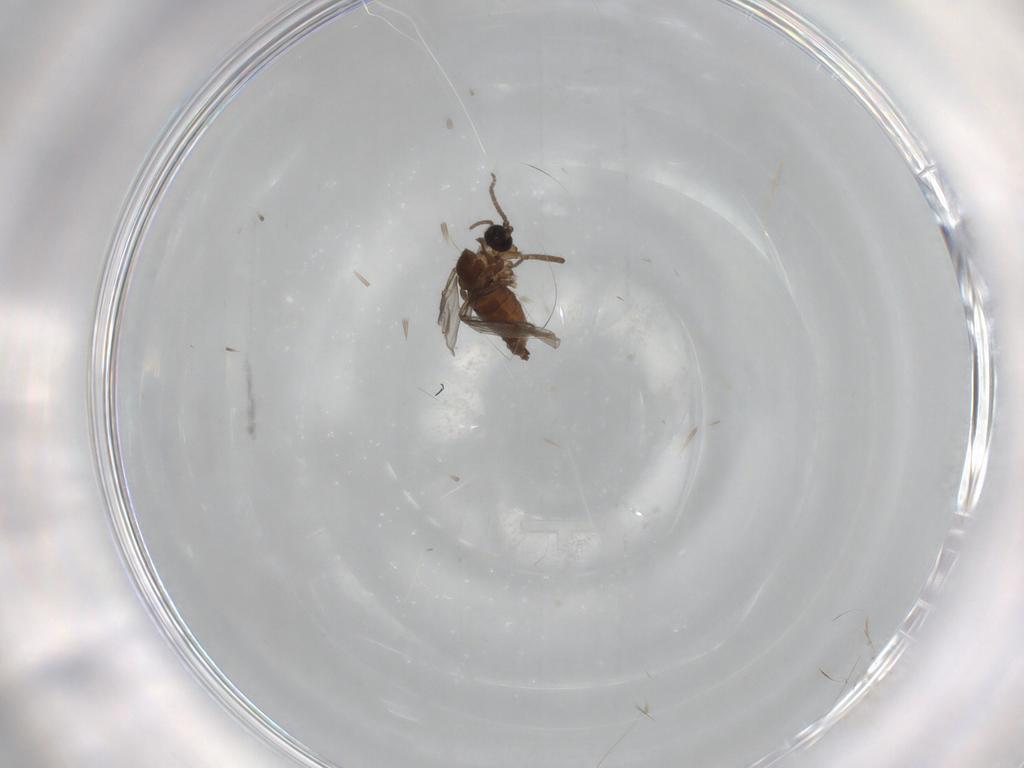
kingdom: Animalia
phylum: Arthropoda
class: Insecta
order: Diptera
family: Sciaridae
